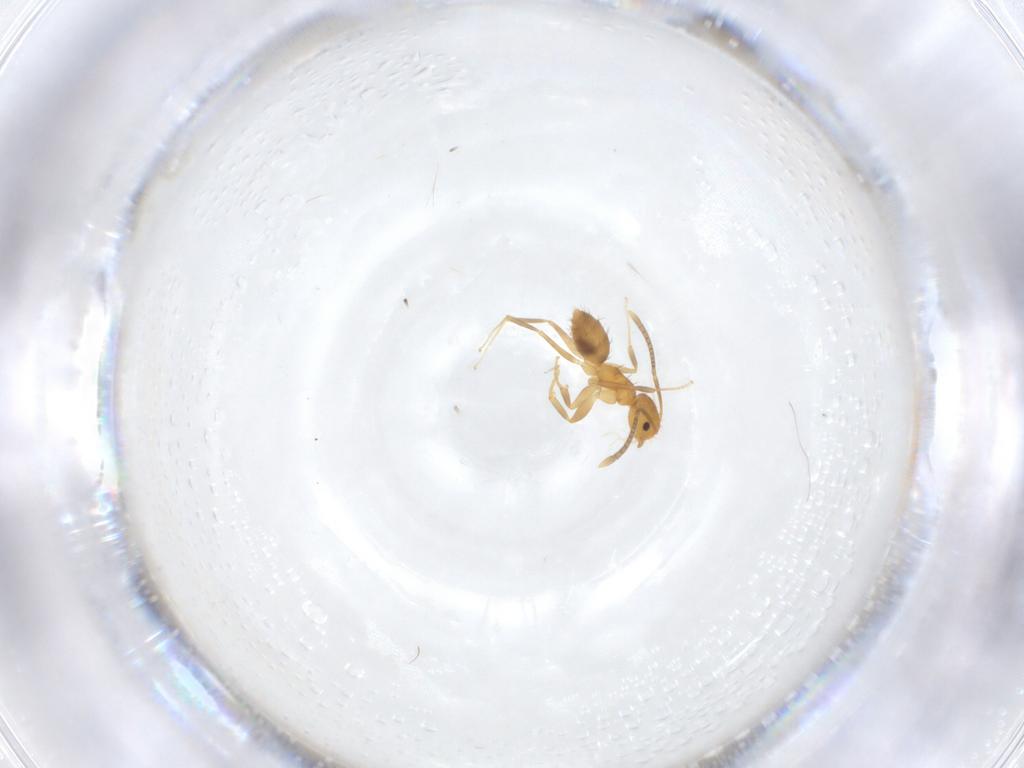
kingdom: Animalia
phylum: Arthropoda
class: Insecta
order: Hymenoptera
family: Formicidae
